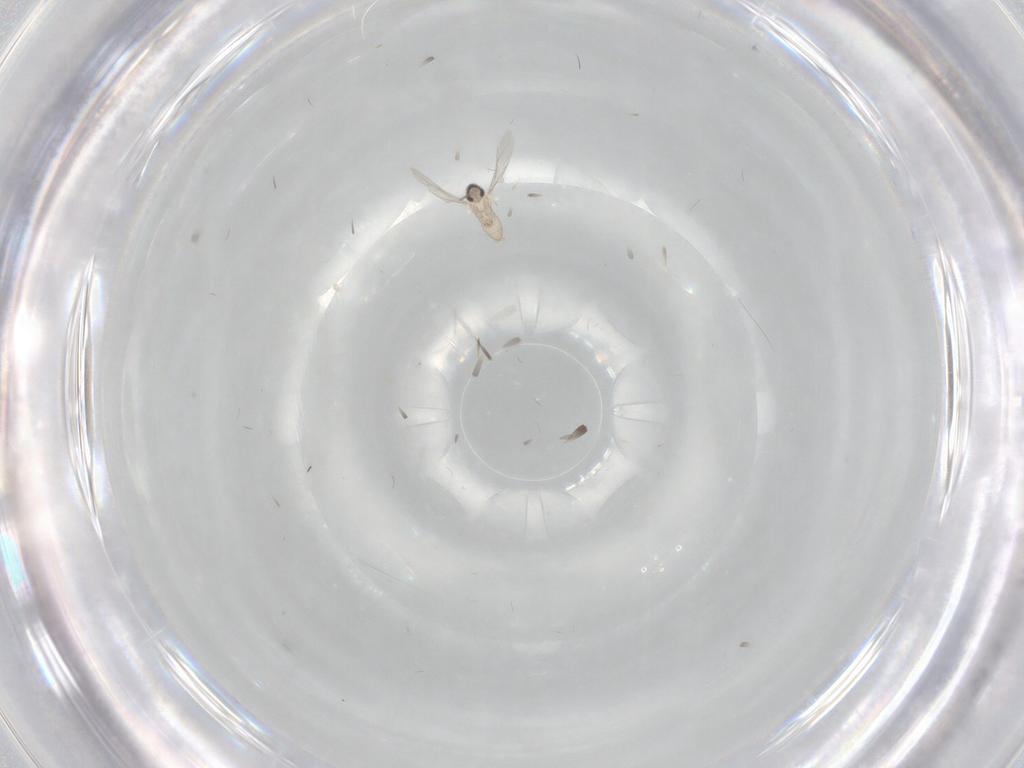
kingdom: Animalia
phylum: Arthropoda
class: Insecta
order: Diptera
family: Cecidomyiidae
